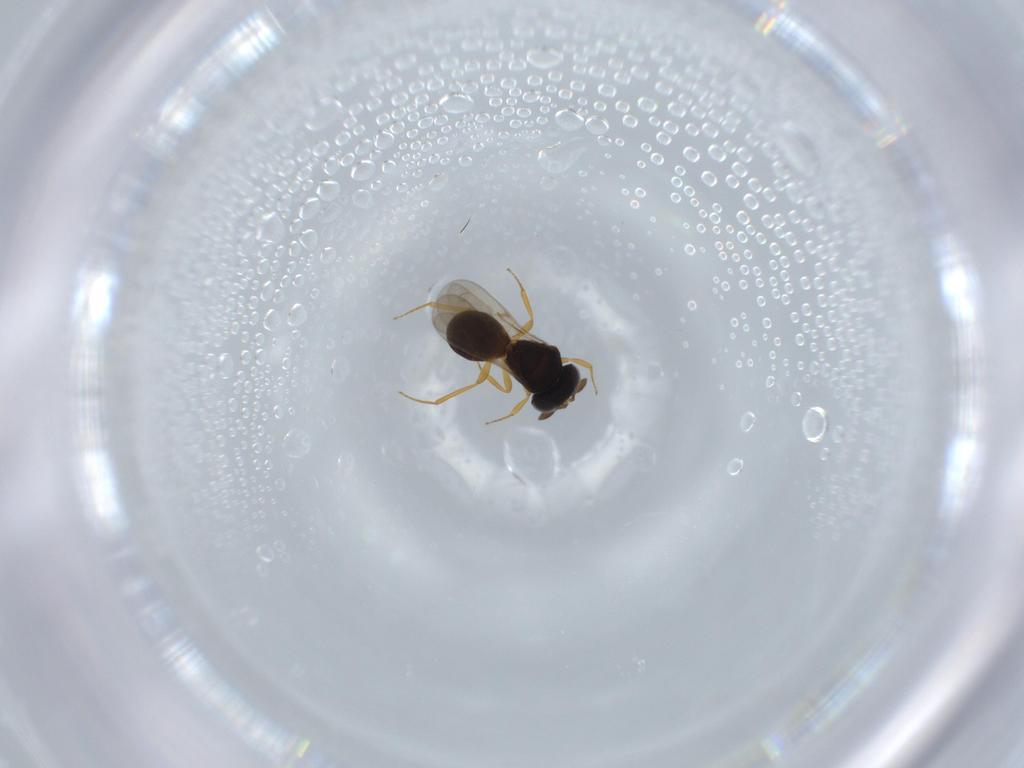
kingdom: Animalia
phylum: Arthropoda
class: Insecta
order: Hymenoptera
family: Scelionidae
